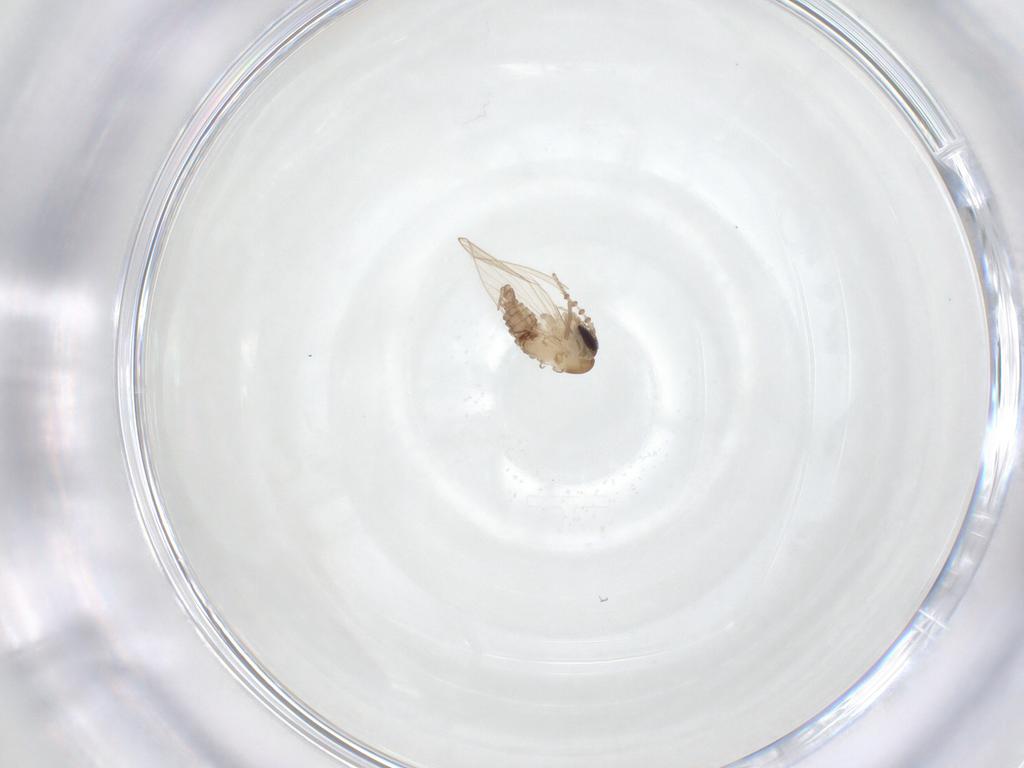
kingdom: Animalia
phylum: Arthropoda
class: Insecta
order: Diptera
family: Psychodidae
